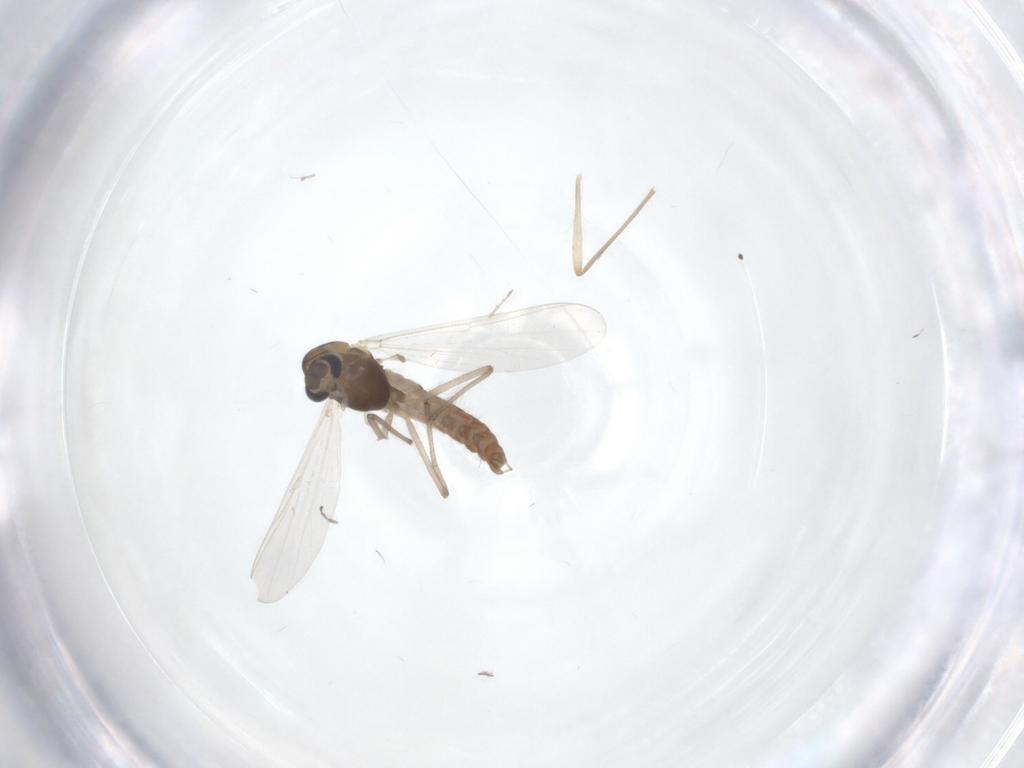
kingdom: Animalia
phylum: Arthropoda
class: Insecta
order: Diptera
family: Chironomidae
